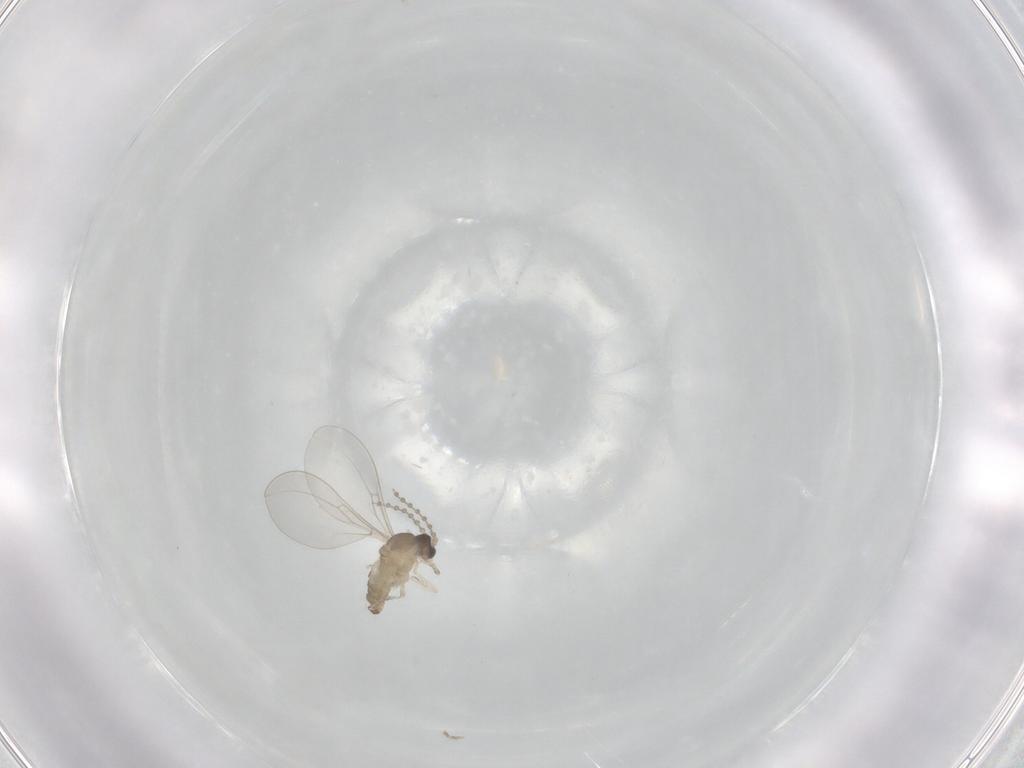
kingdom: Animalia
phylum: Arthropoda
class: Insecta
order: Diptera
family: Cecidomyiidae
